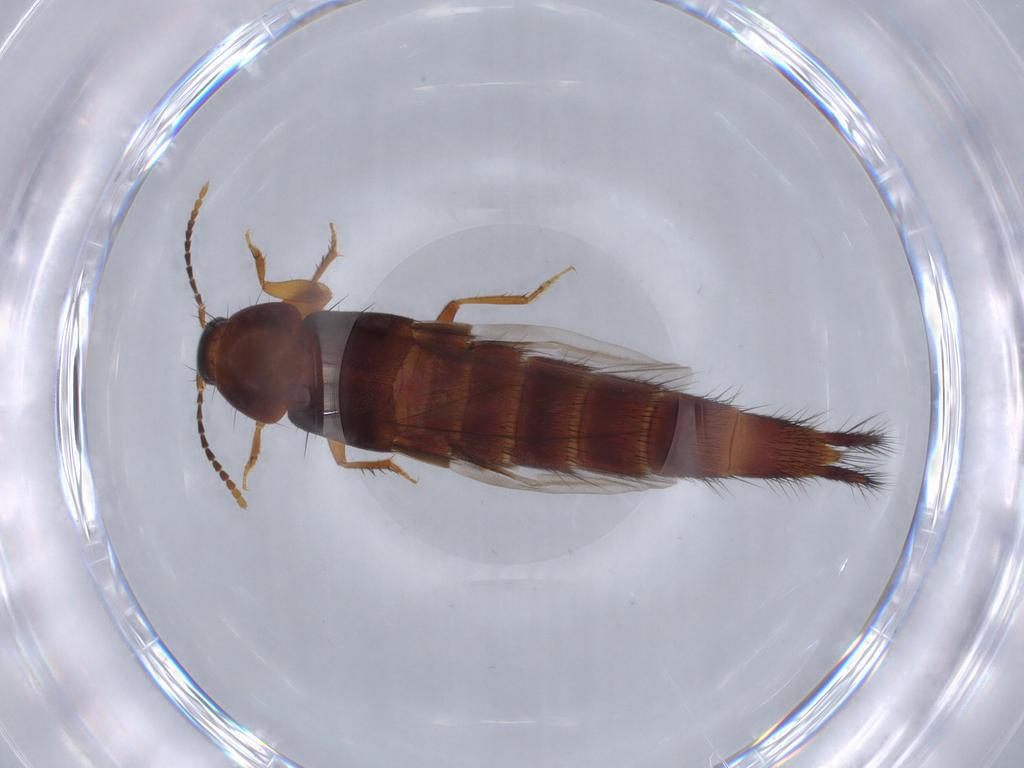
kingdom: Animalia
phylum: Arthropoda
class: Insecta
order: Coleoptera
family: Staphylinidae
